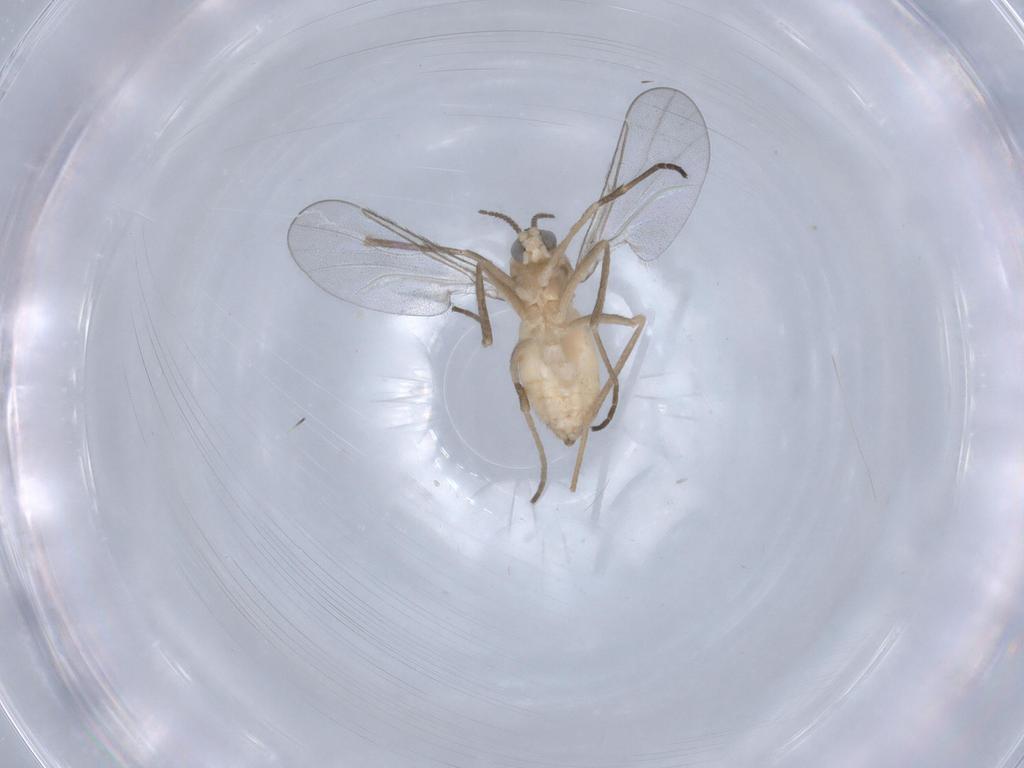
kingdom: Animalia
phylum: Arthropoda
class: Insecta
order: Diptera
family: Cecidomyiidae
